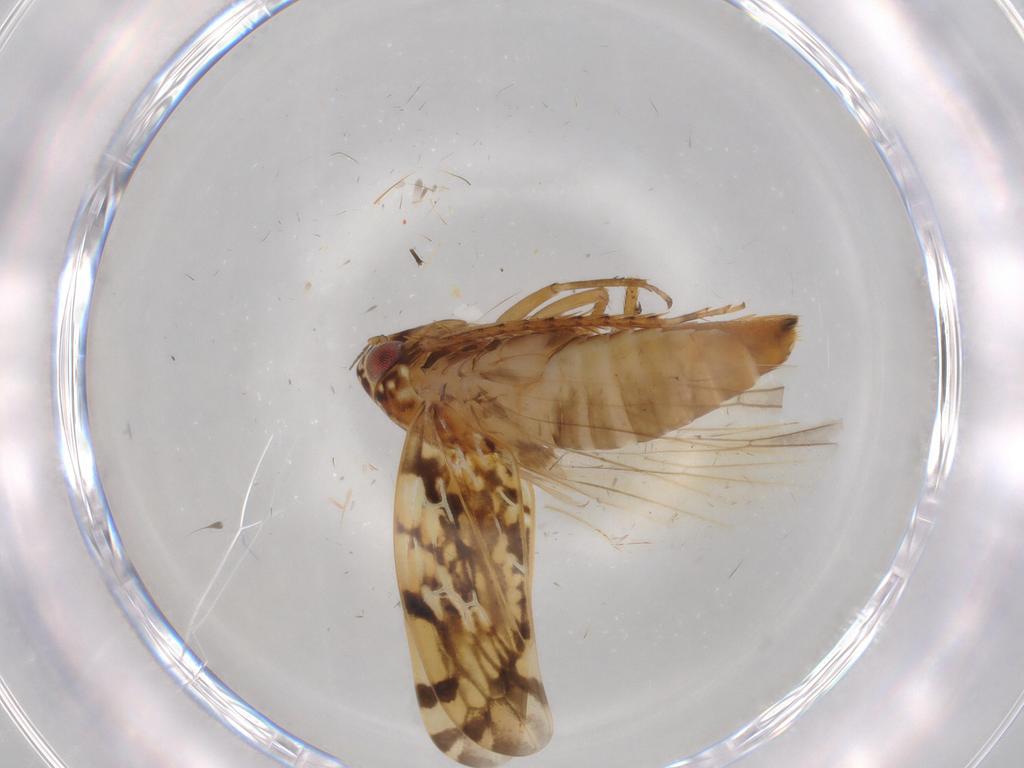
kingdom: Animalia
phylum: Arthropoda
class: Insecta
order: Hemiptera
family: Cicadellidae
